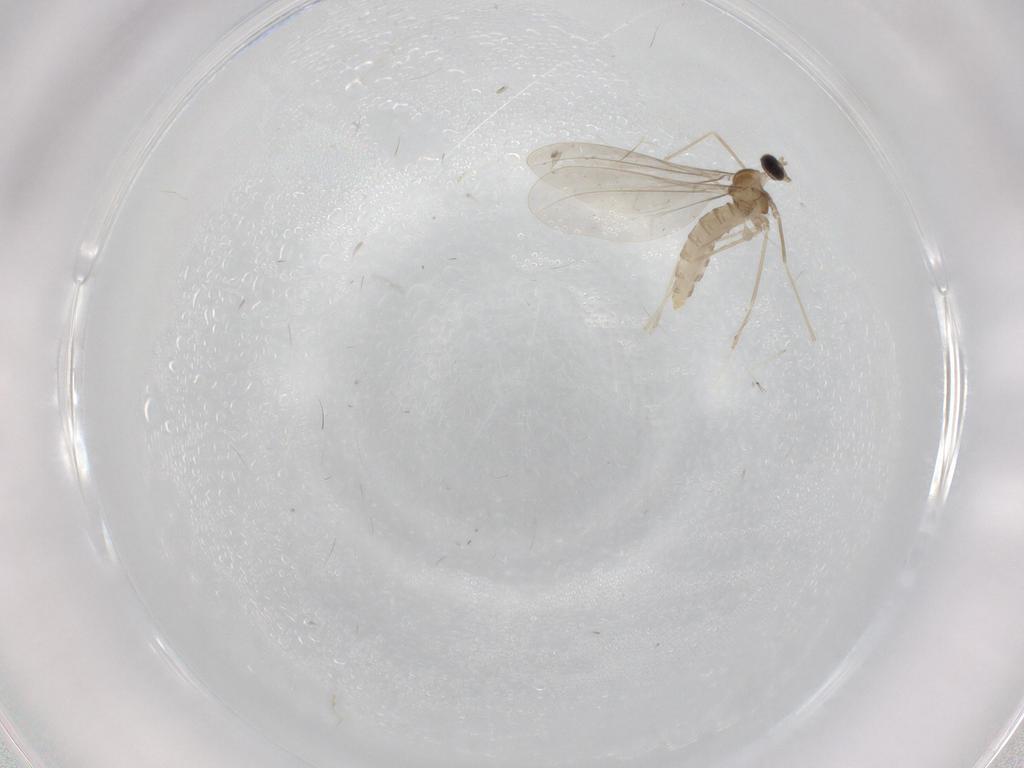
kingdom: Animalia
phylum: Arthropoda
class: Insecta
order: Diptera
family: Cecidomyiidae
